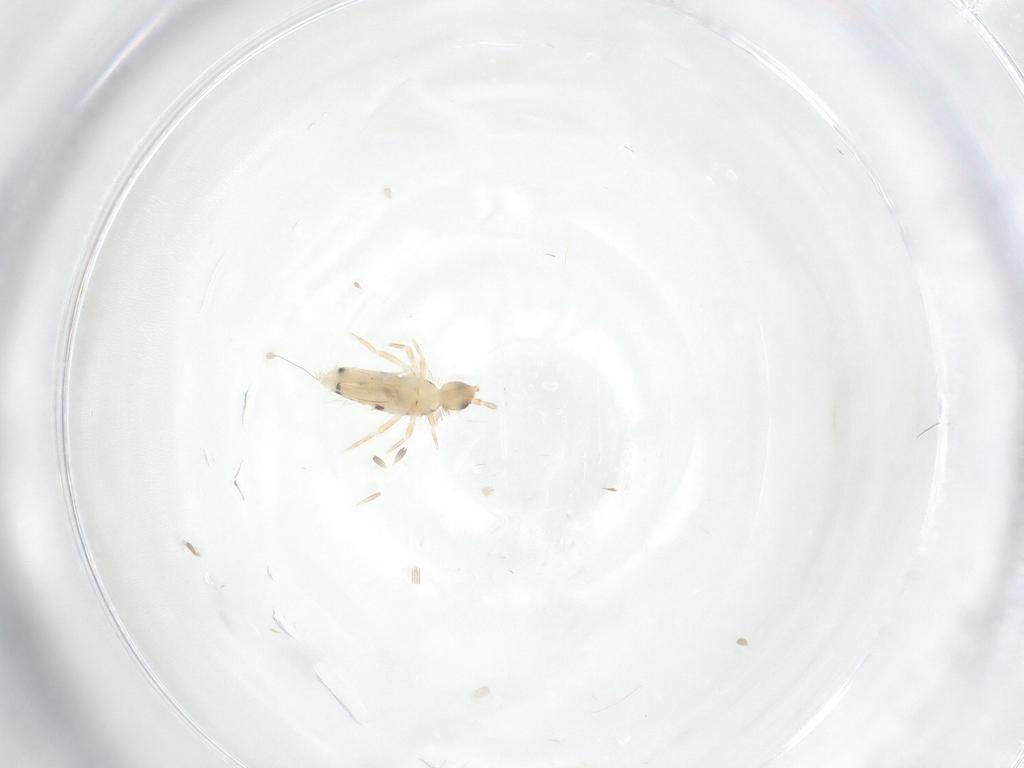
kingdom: Animalia
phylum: Arthropoda
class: Collembola
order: Entomobryomorpha
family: Entomobryidae
